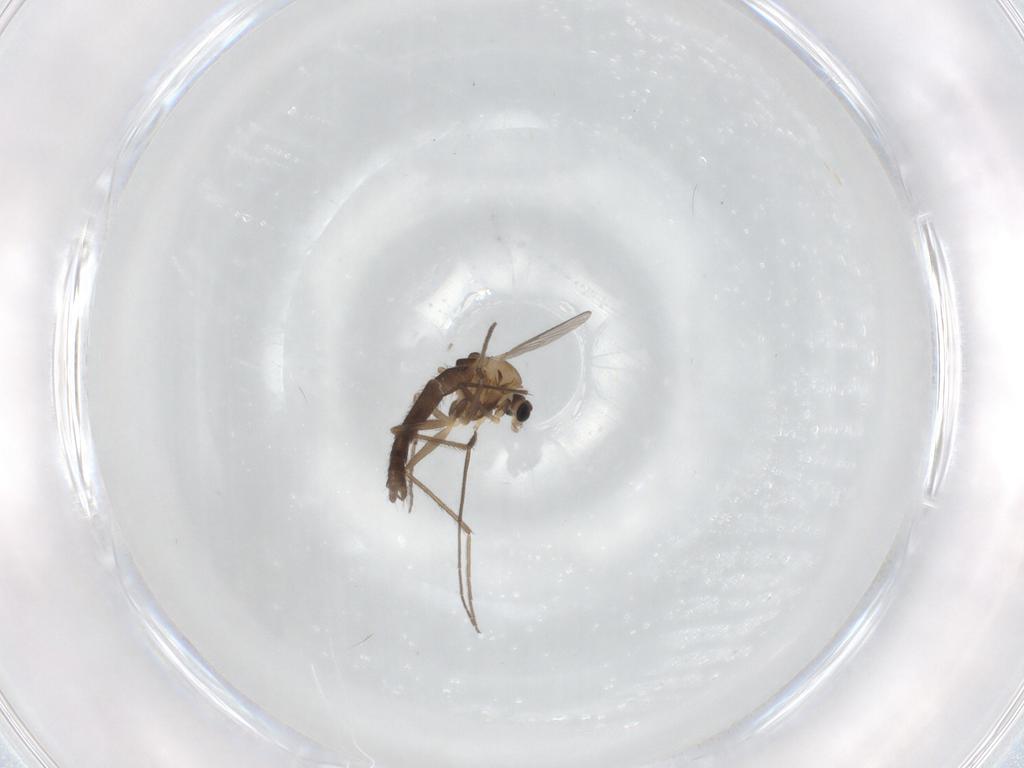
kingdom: Animalia
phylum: Arthropoda
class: Insecta
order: Diptera
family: Chironomidae
